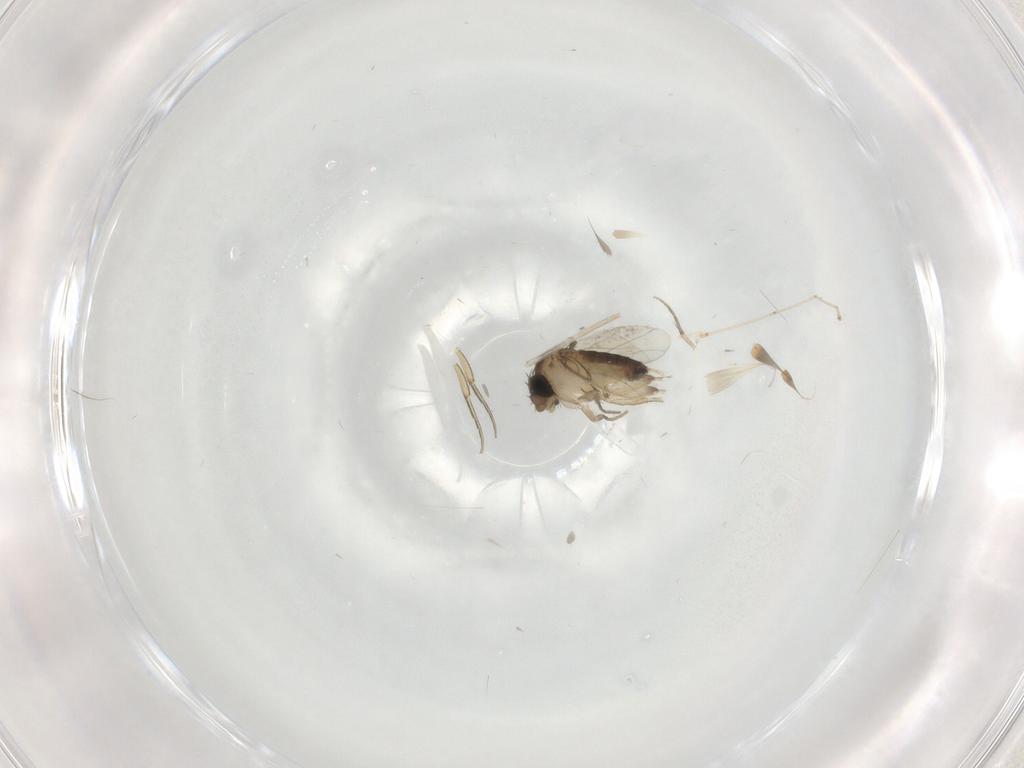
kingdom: Animalia
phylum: Arthropoda
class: Insecta
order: Diptera
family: Phoridae
